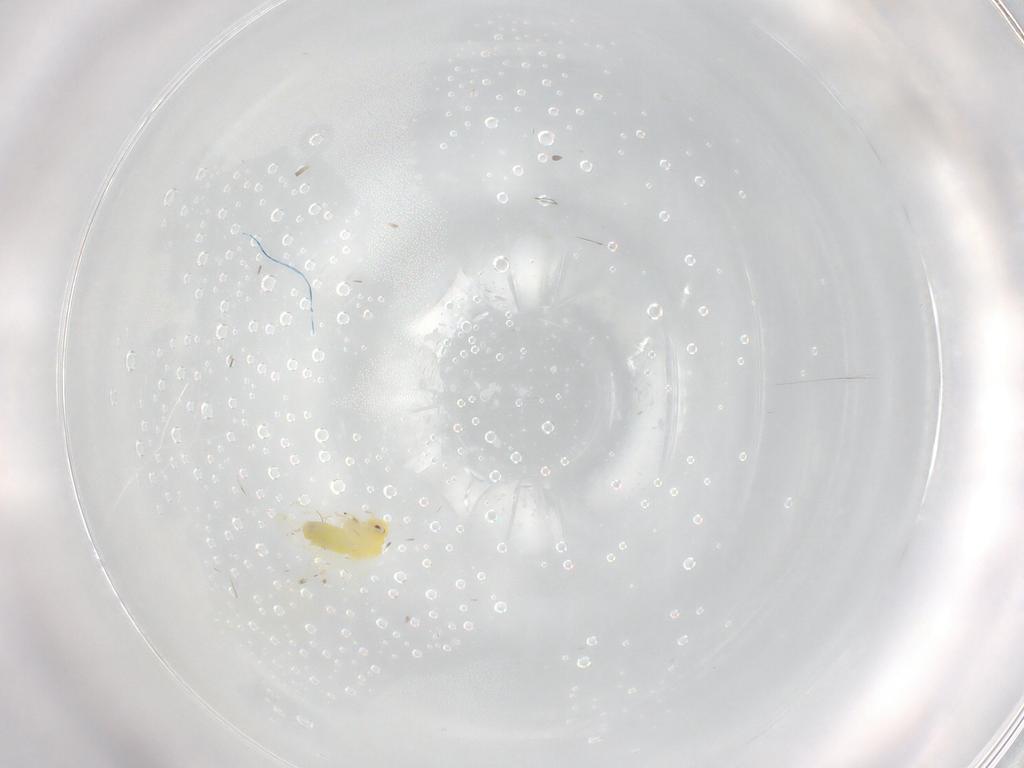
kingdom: Animalia
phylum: Arthropoda
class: Insecta
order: Hemiptera
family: Aleyrodidae
